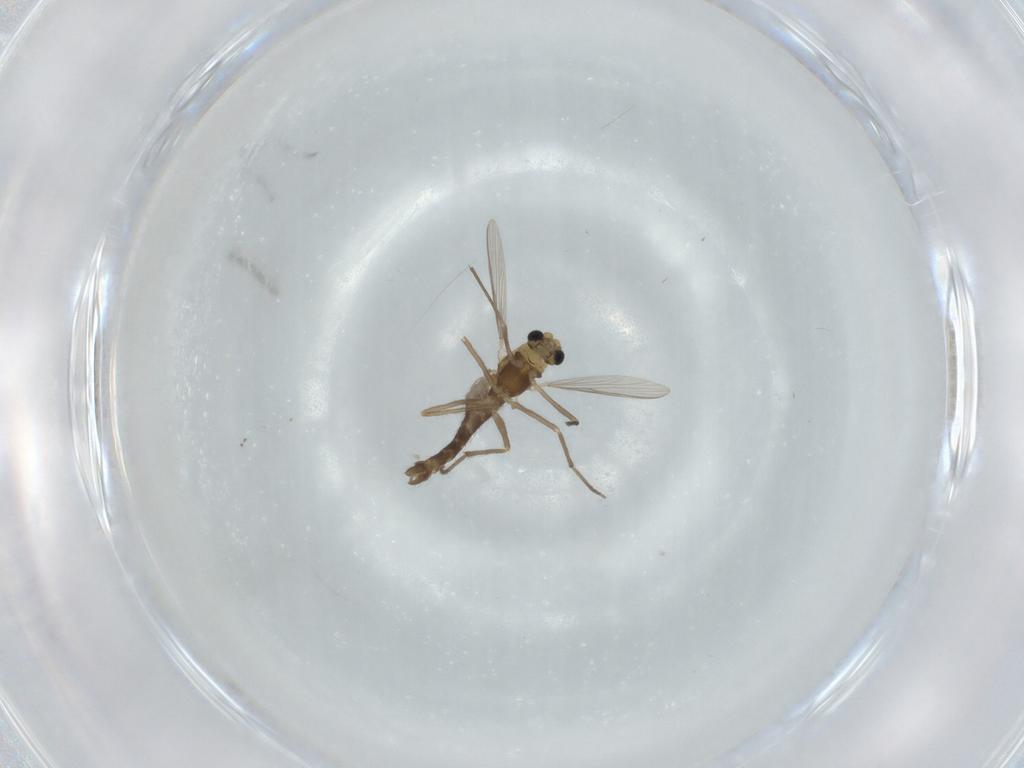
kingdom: Animalia
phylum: Arthropoda
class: Insecta
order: Diptera
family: Chironomidae
